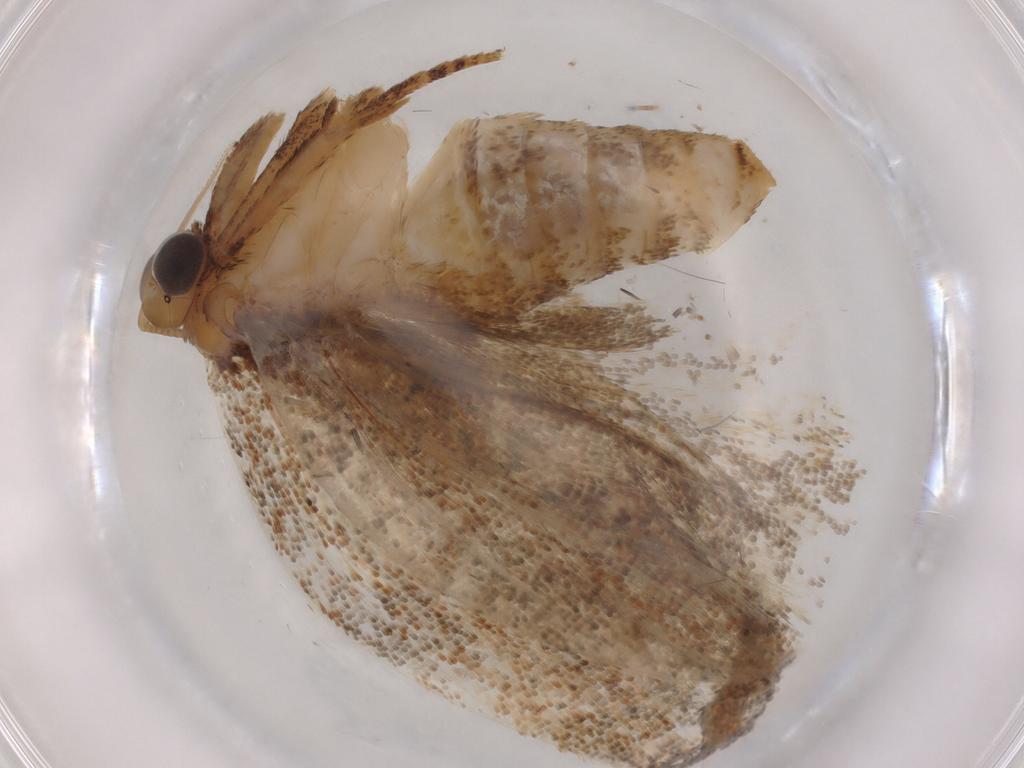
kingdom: Animalia
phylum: Arthropoda
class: Insecta
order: Lepidoptera
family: Tortricidae
